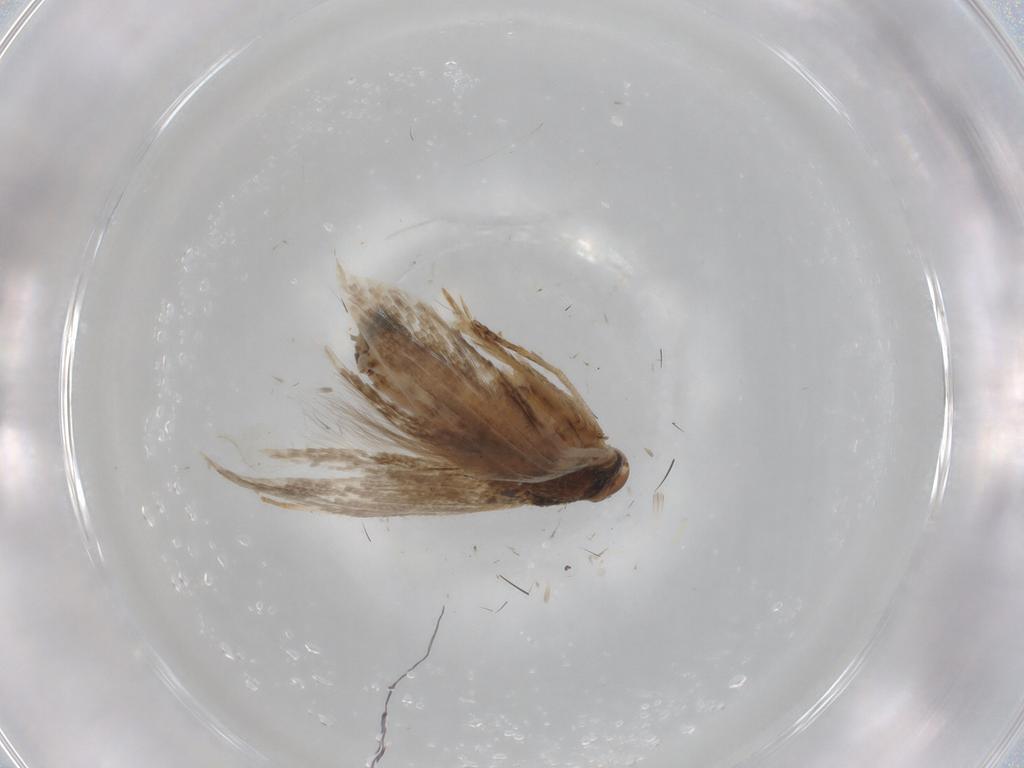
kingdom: Animalia
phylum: Arthropoda
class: Insecta
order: Lepidoptera
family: Cosmopterigidae
